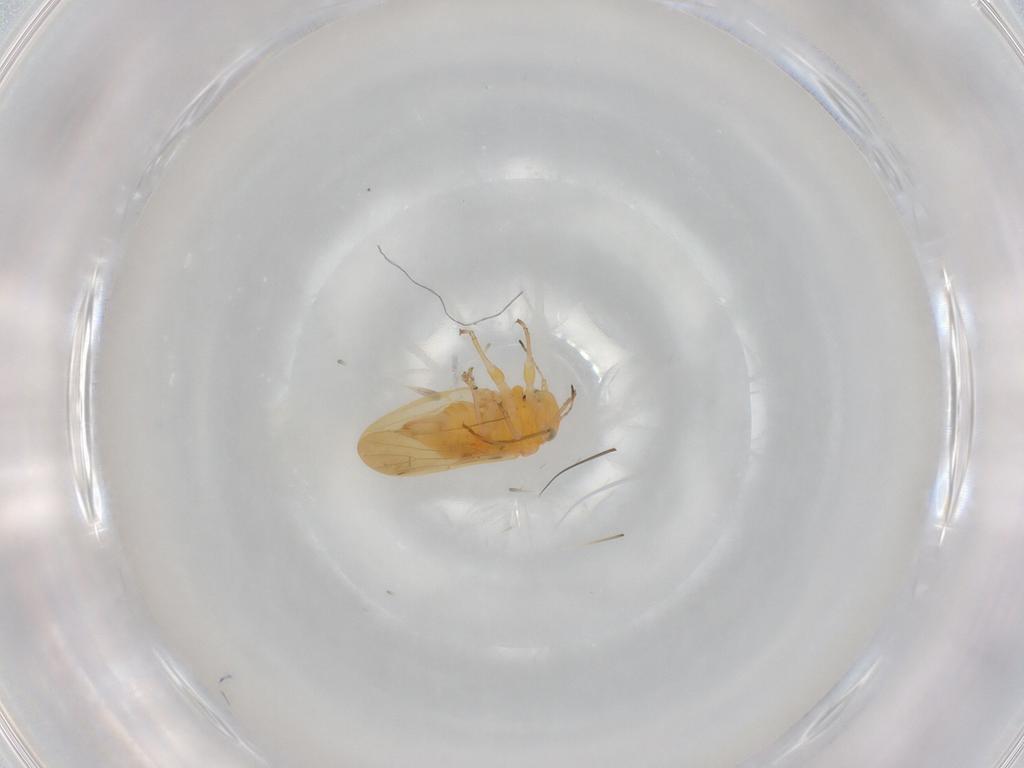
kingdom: Animalia
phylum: Arthropoda
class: Insecta
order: Hemiptera
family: Liviidae
